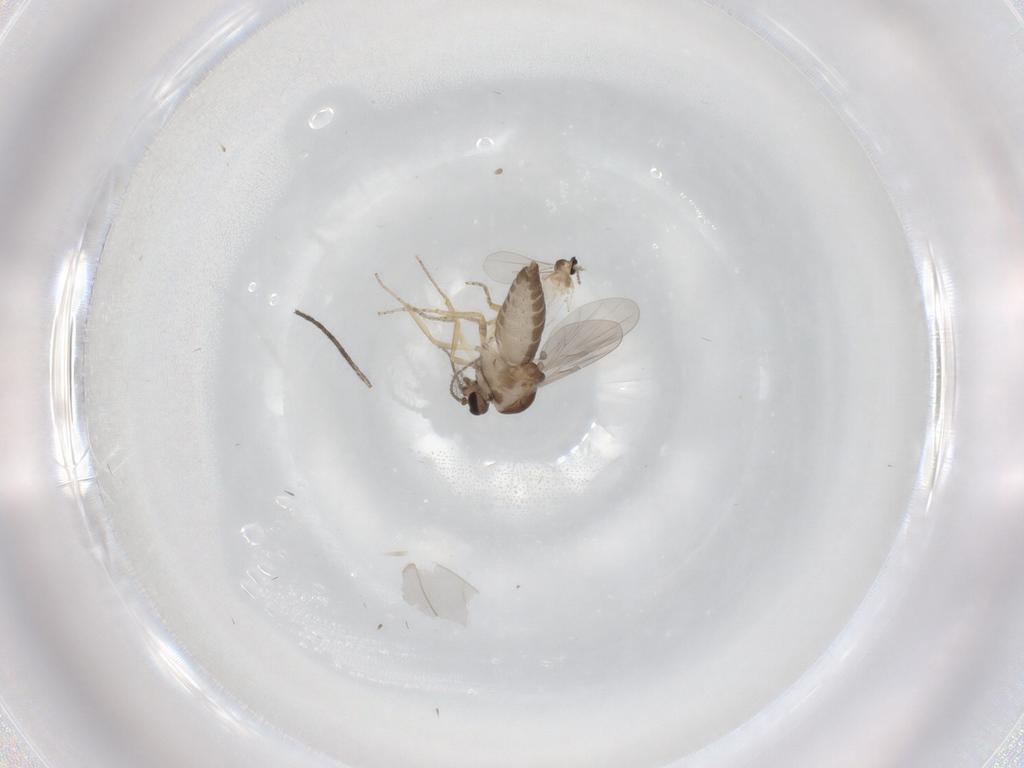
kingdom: Animalia
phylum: Arthropoda
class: Insecta
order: Diptera
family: Ceratopogonidae
